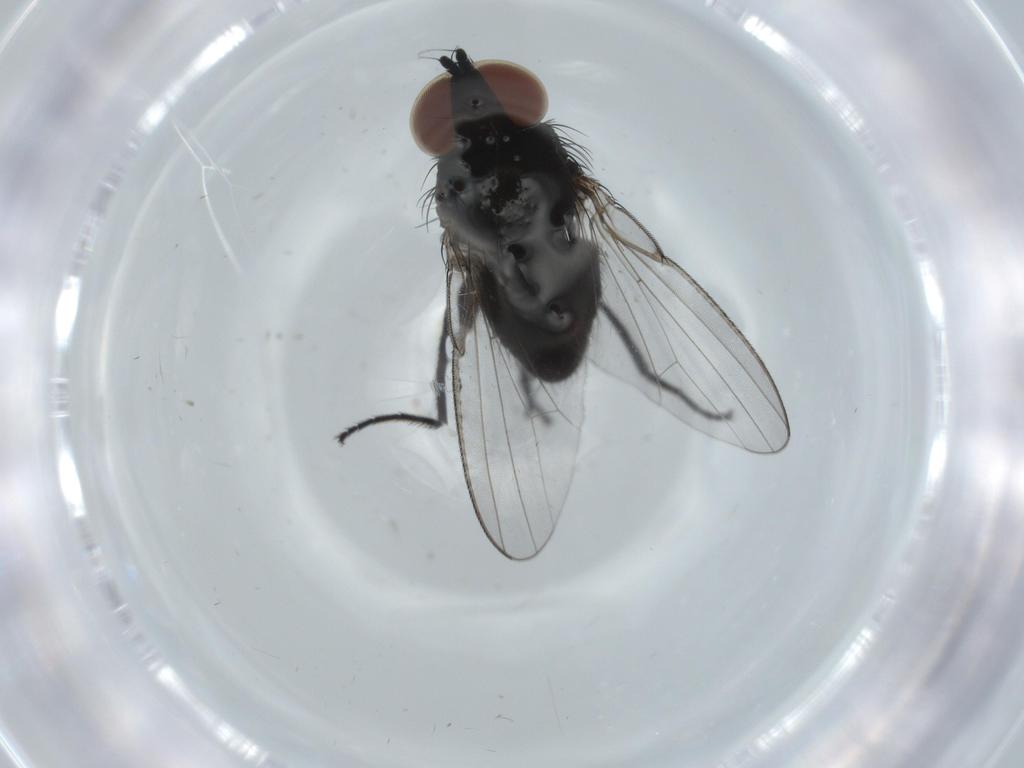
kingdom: Animalia
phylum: Arthropoda
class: Insecta
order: Diptera
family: Milichiidae
